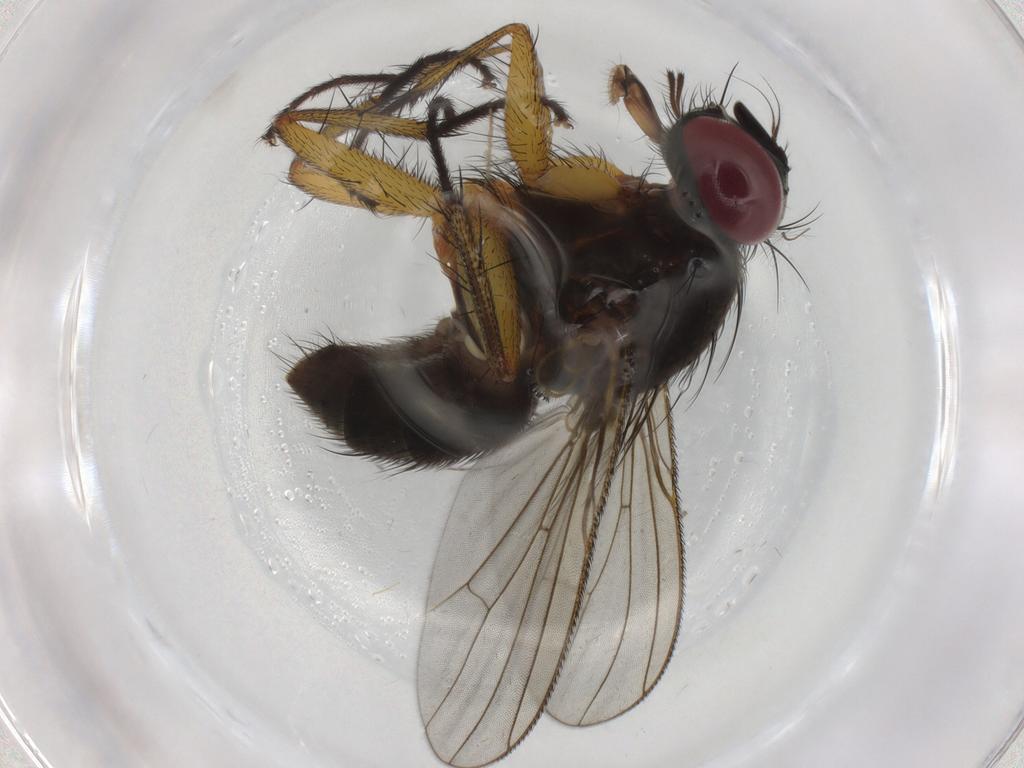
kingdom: Animalia
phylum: Arthropoda
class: Insecta
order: Diptera
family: Muscidae
